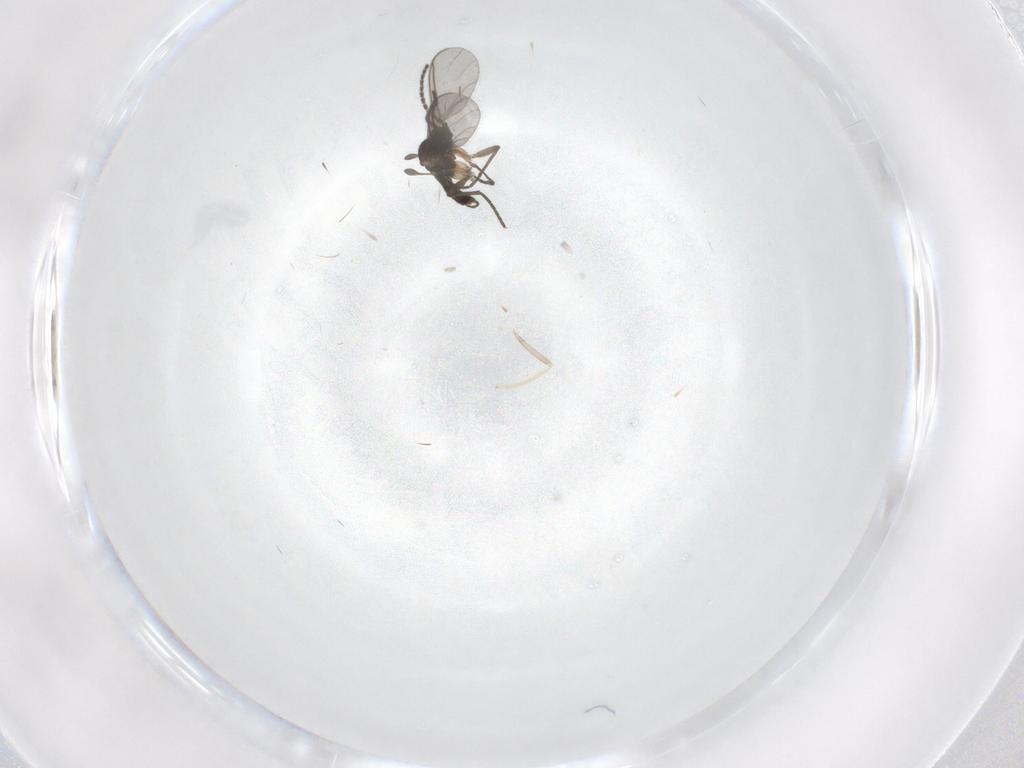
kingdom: Animalia
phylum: Arthropoda
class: Insecta
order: Diptera
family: Sciaridae
